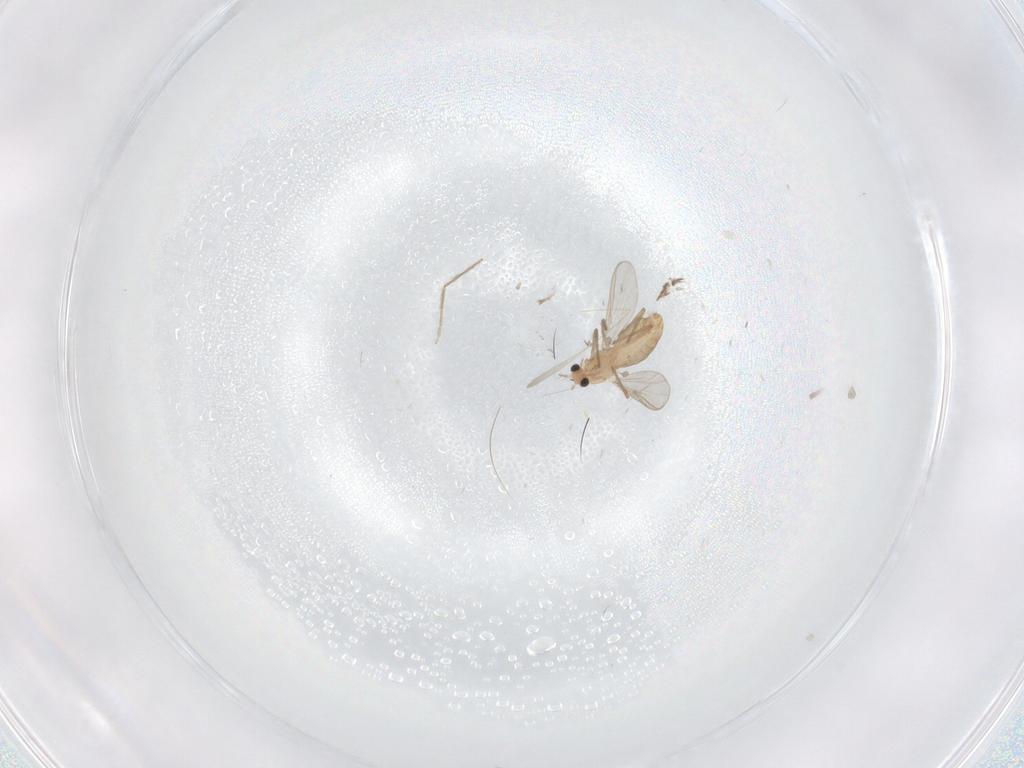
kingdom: Animalia
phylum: Arthropoda
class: Insecta
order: Diptera
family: Chironomidae
